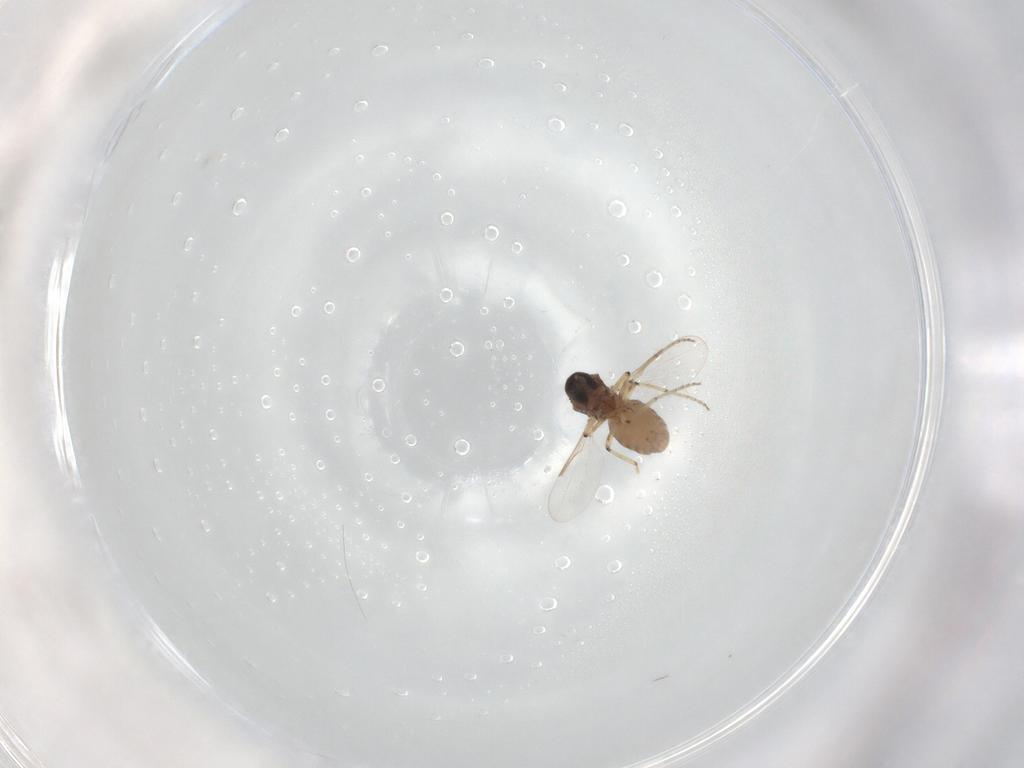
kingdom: Animalia
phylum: Arthropoda
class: Insecta
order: Diptera
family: Ceratopogonidae
